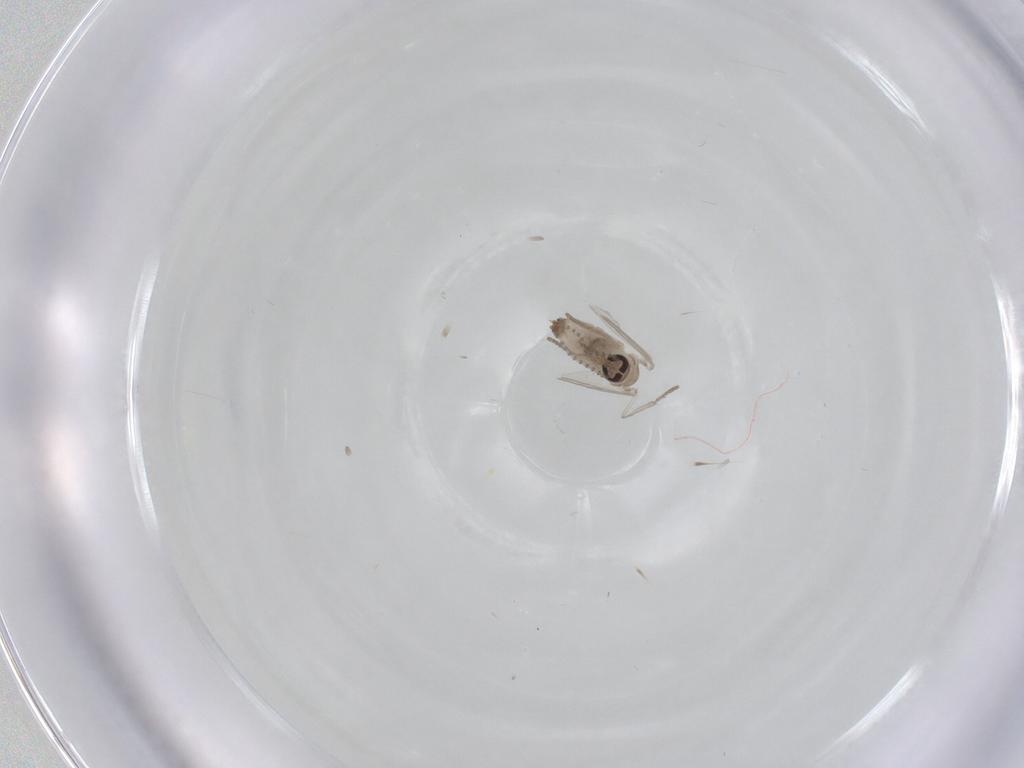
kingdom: Animalia
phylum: Arthropoda
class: Insecta
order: Diptera
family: Psychodidae
